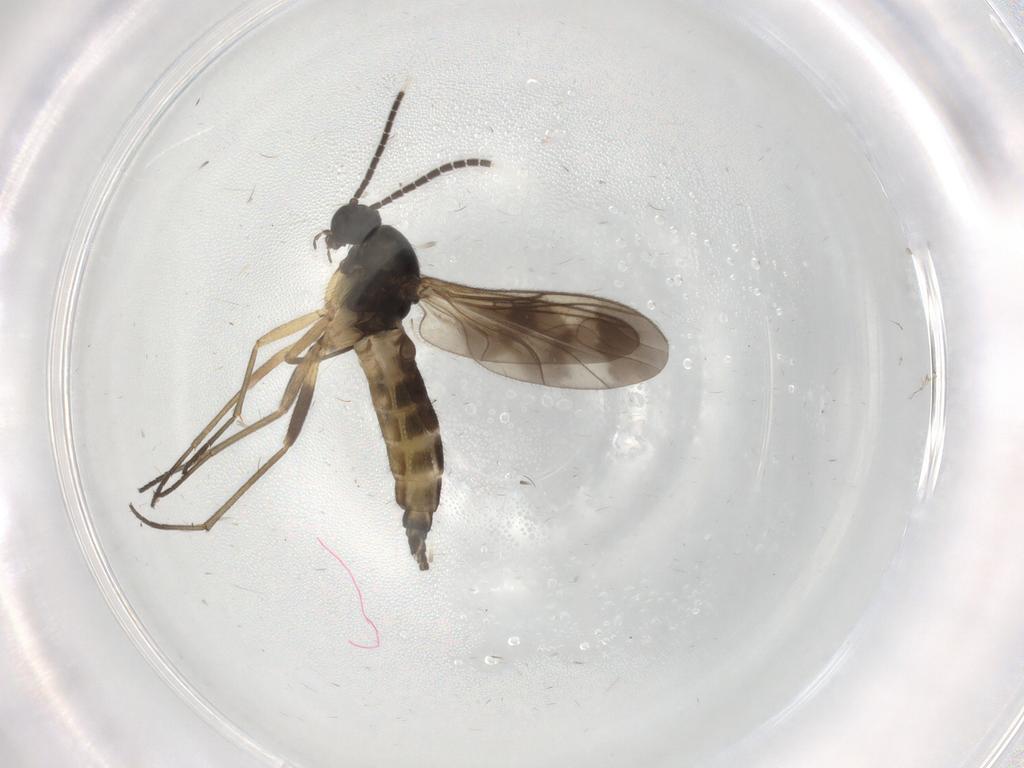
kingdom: Animalia
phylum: Arthropoda
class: Insecta
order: Diptera
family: Sciaridae
